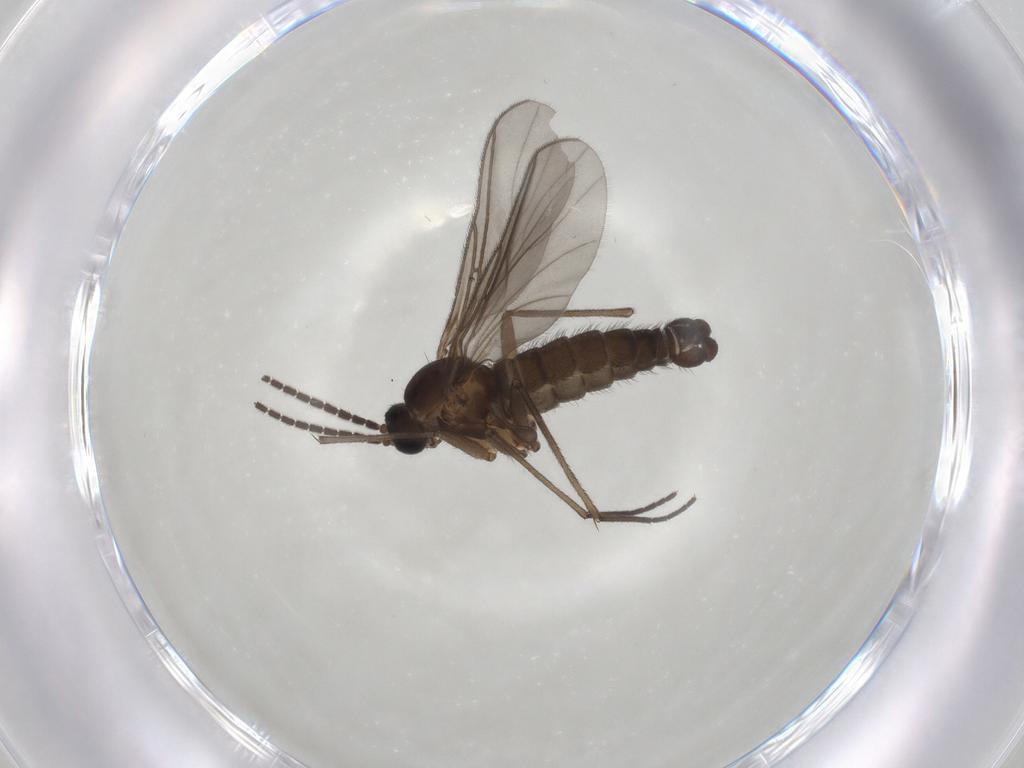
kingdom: Animalia
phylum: Arthropoda
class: Insecta
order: Diptera
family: Sciaridae
